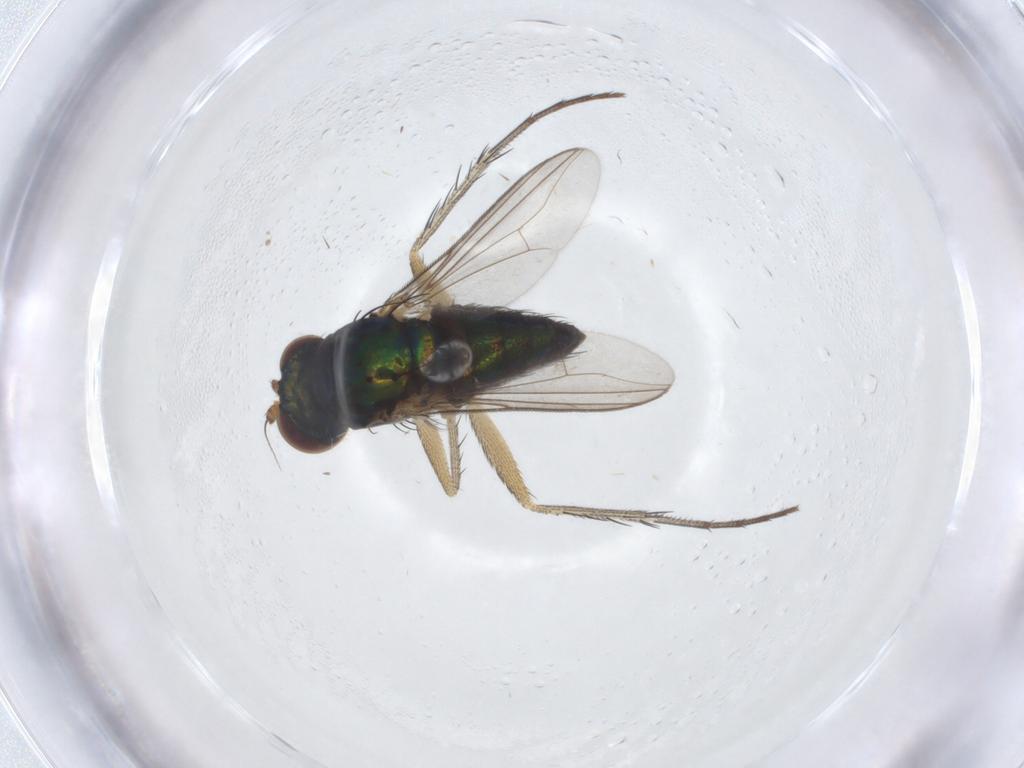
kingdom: Animalia
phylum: Arthropoda
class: Insecta
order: Diptera
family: Dolichopodidae
